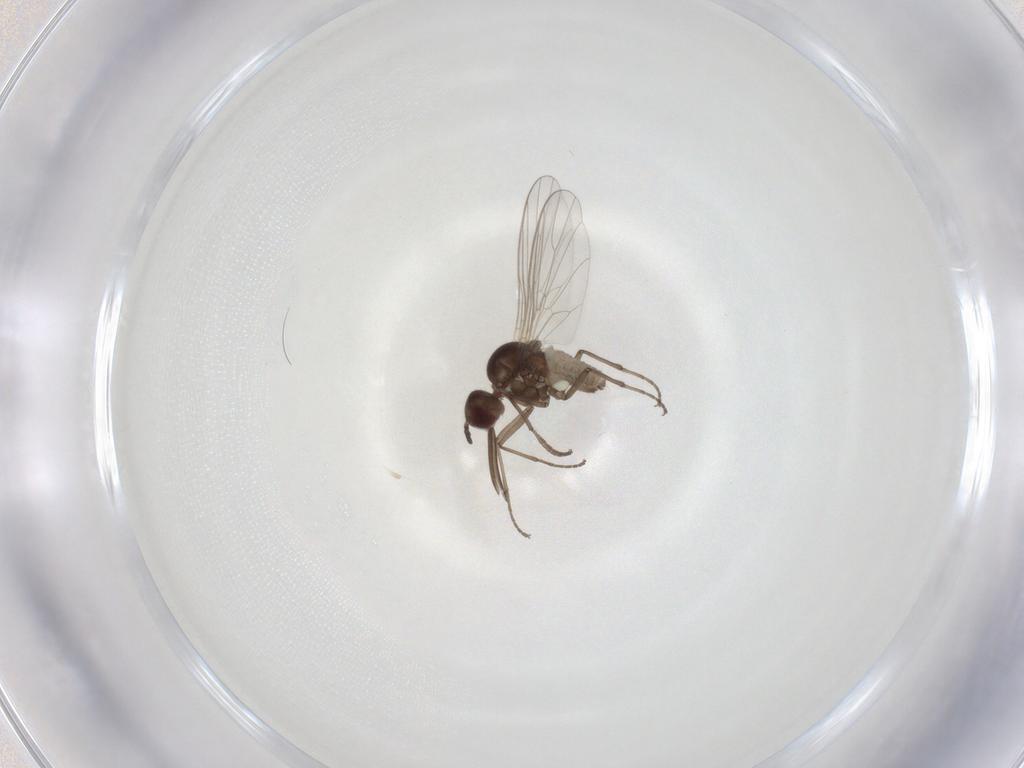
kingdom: Animalia
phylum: Arthropoda
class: Insecta
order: Diptera
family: Bombyliidae
